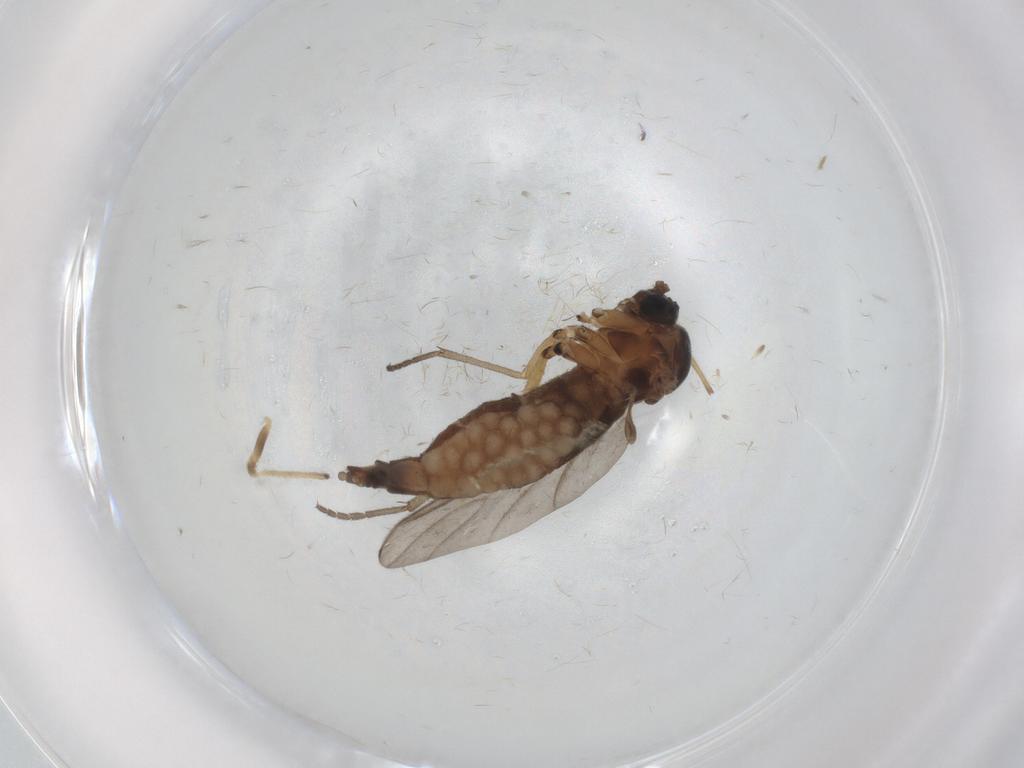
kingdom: Animalia
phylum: Arthropoda
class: Insecta
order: Diptera
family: Sciaridae
